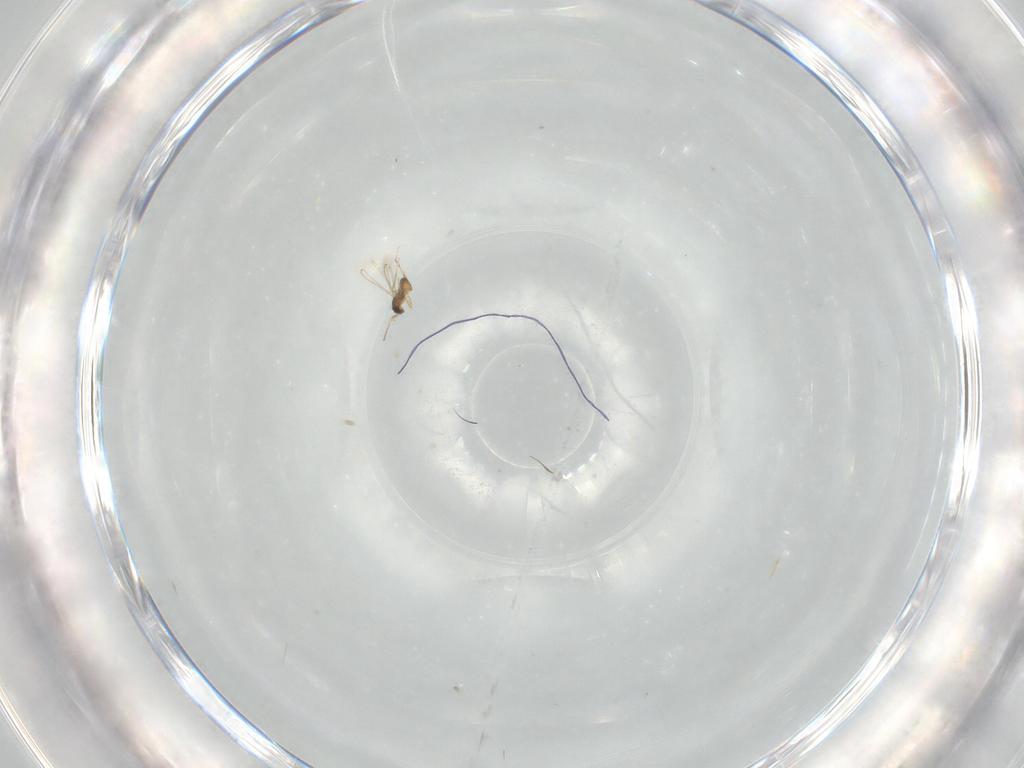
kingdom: Animalia
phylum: Arthropoda
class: Insecta
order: Hymenoptera
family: Mymaridae
